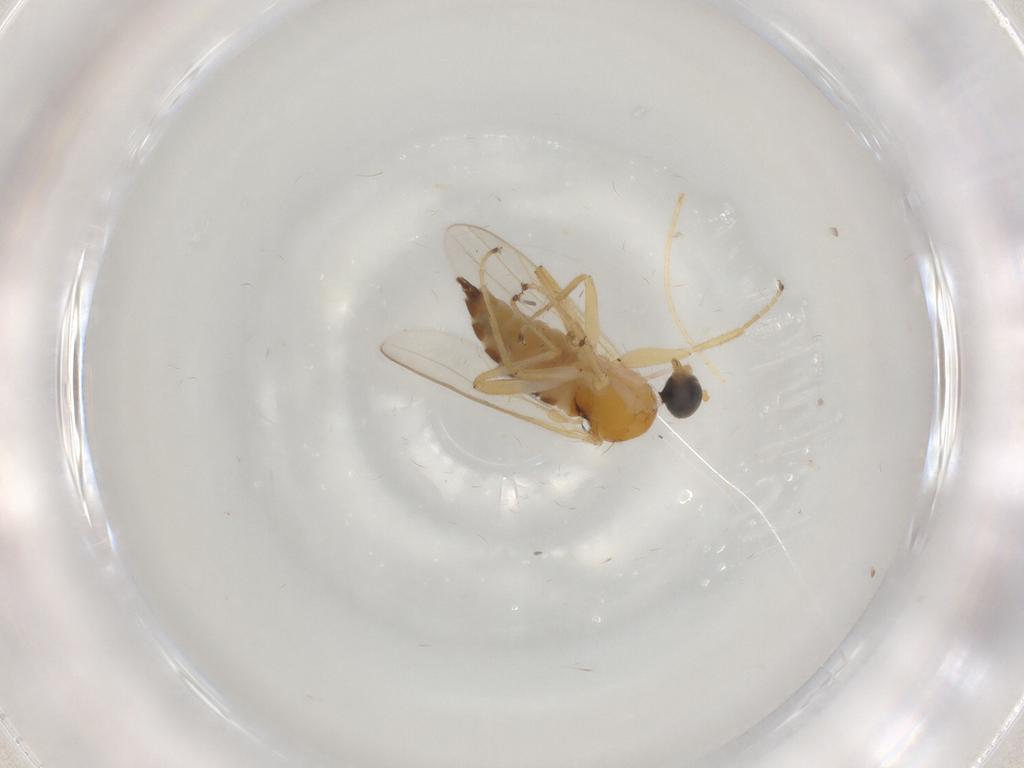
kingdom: Animalia
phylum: Arthropoda
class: Insecta
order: Diptera
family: Hybotidae
